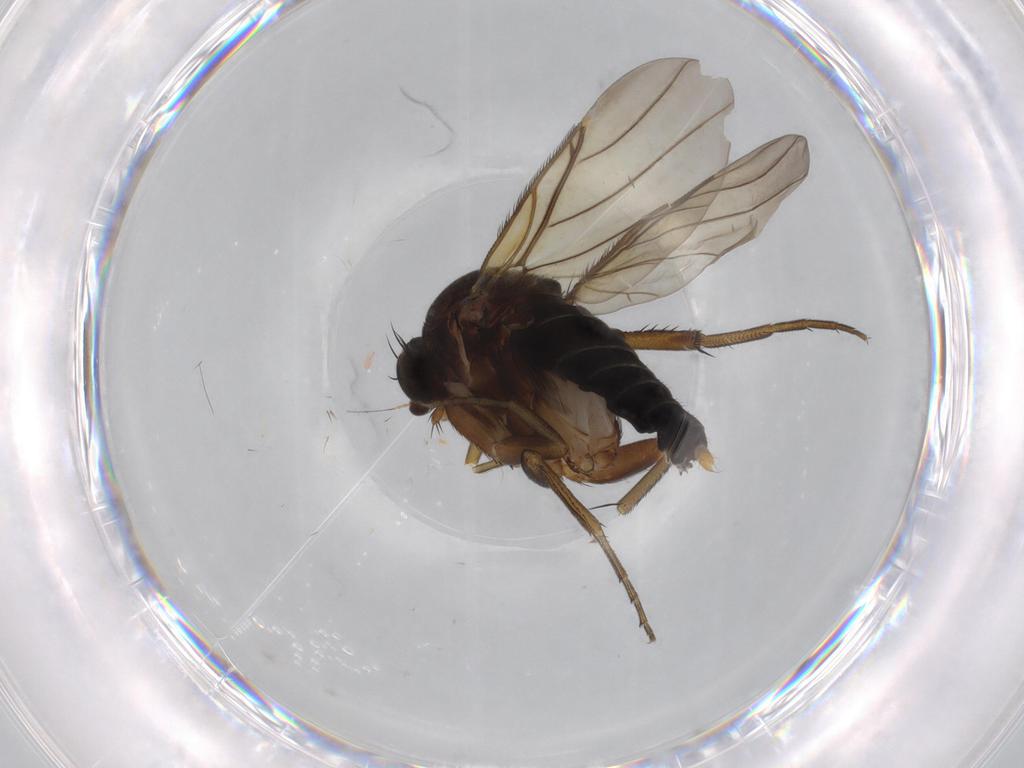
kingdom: Animalia
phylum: Arthropoda
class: Insecta
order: Diptera
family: Phoridae
